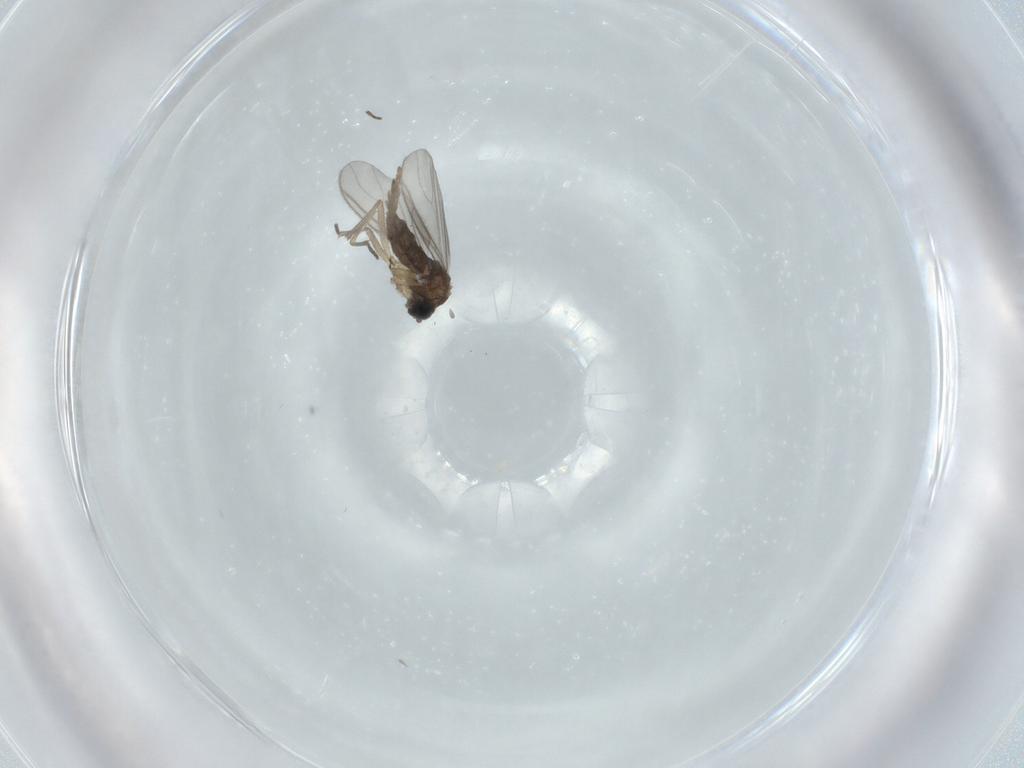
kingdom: Animalia
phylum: Arthropoda
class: Insecta
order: Diptera
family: Sciaridae
